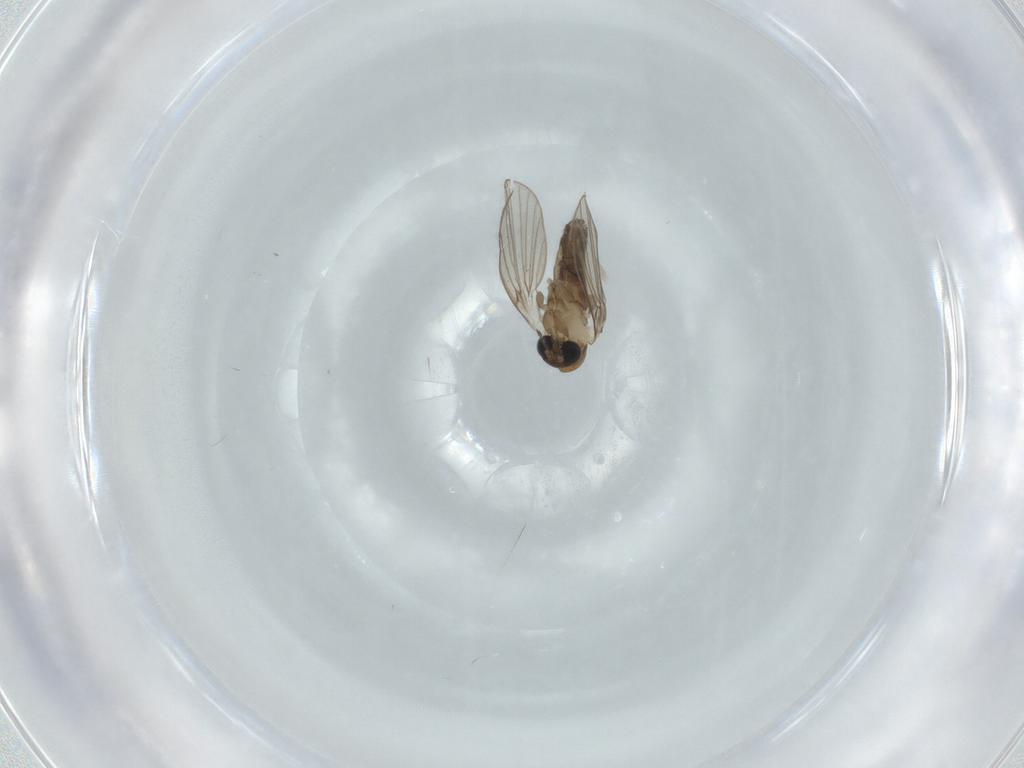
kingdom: Animalia
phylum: Arthropoda
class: Insecta
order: Diptera
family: Psychodidae
